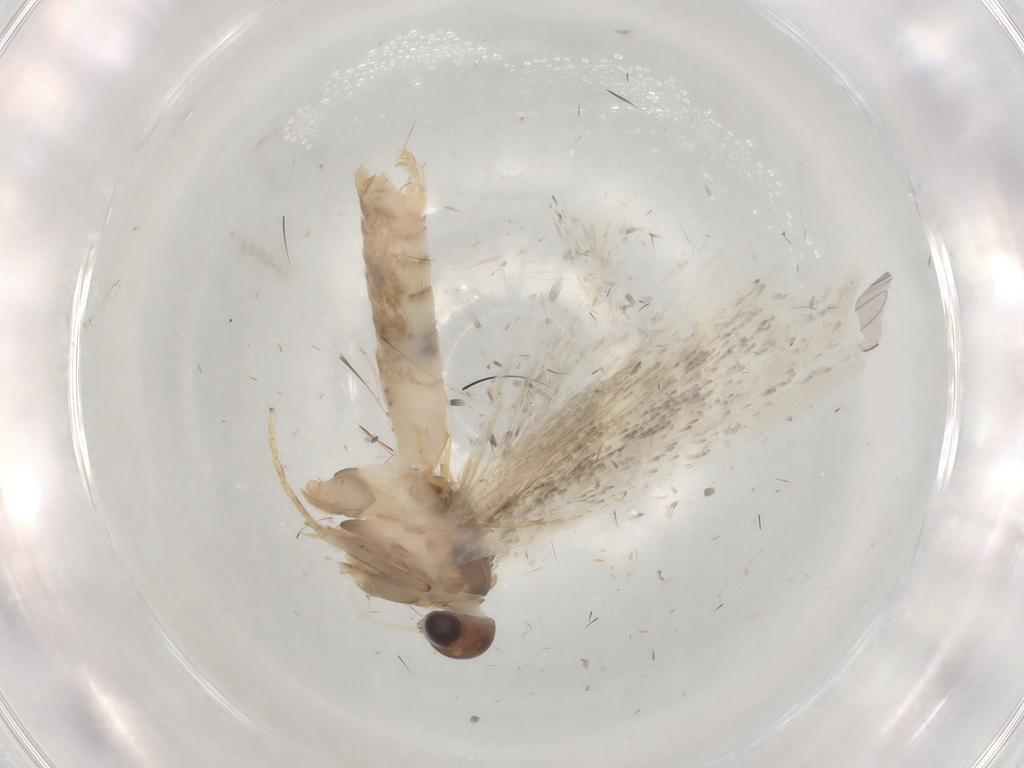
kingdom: Animalia
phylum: Arthropoda
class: Insecta
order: Lepidoptera
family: Gelechiidae
